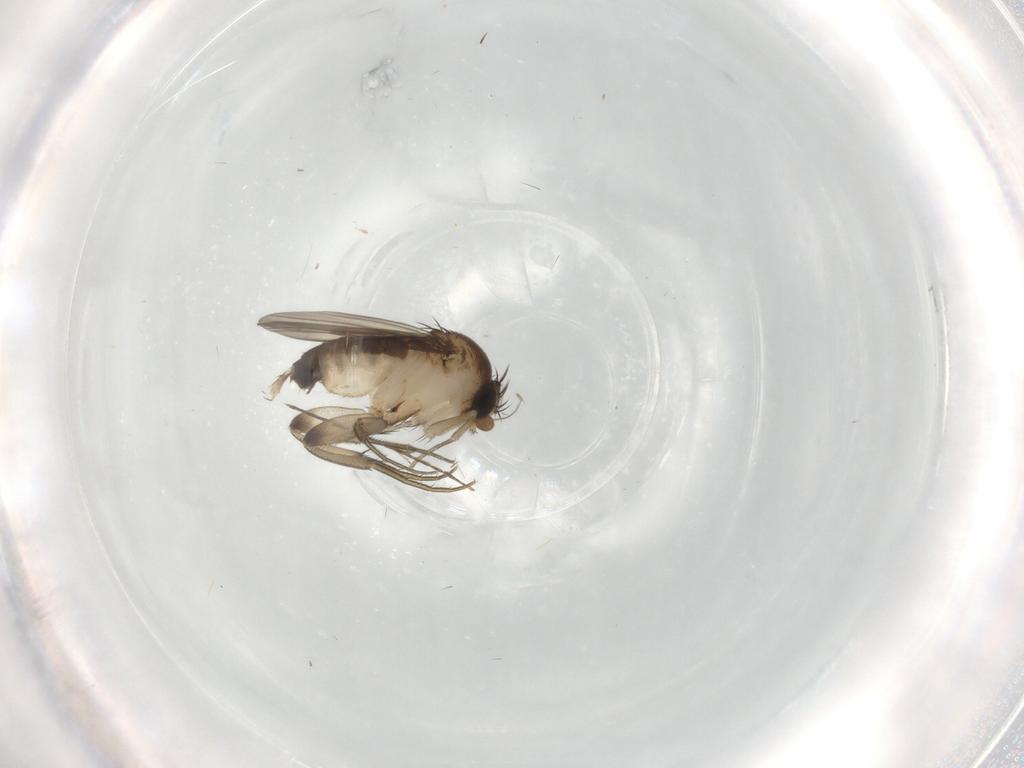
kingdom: Animalia
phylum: Arthropoda
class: Insecta
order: Diptera
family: Phoridae
